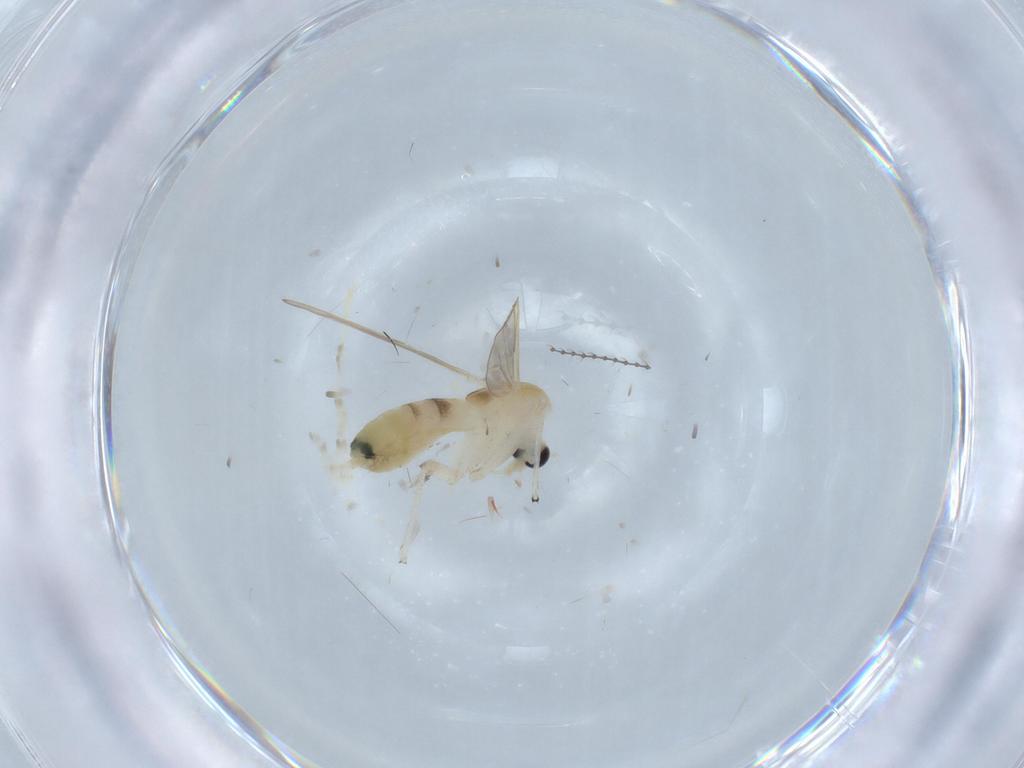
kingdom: Animalia
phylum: Arthropoda
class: Insecta
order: Diptera
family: Chironomidae
